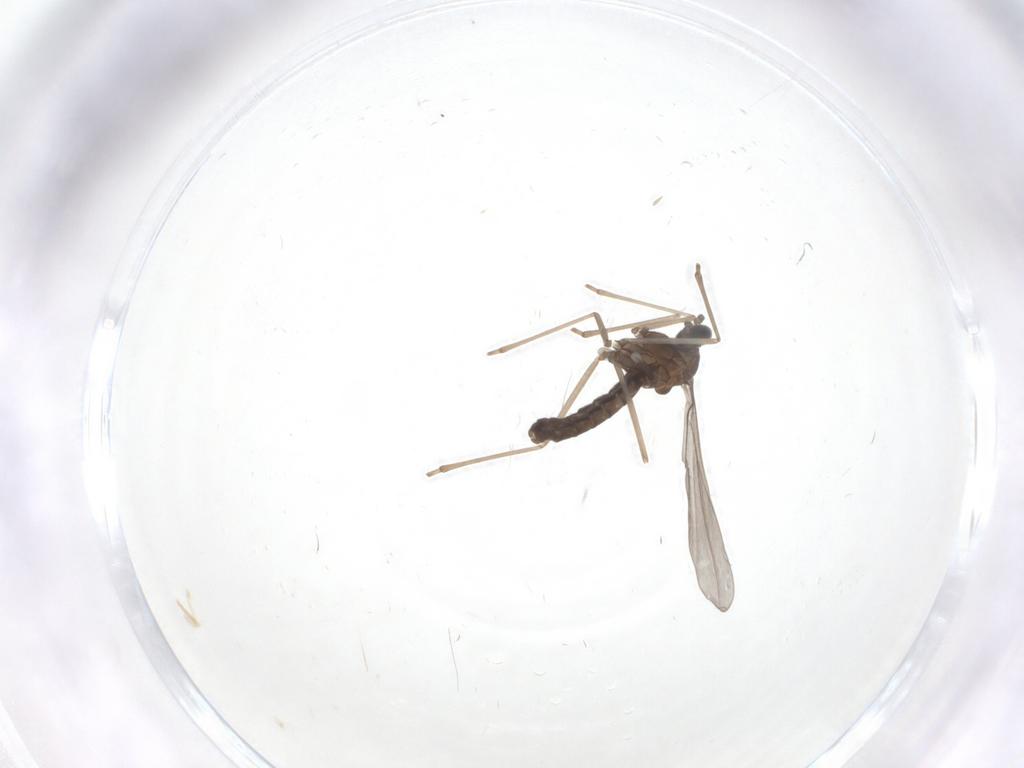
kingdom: Animalia
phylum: Arthropoda
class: Insecta
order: Diptera
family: Cecidomyiidae
